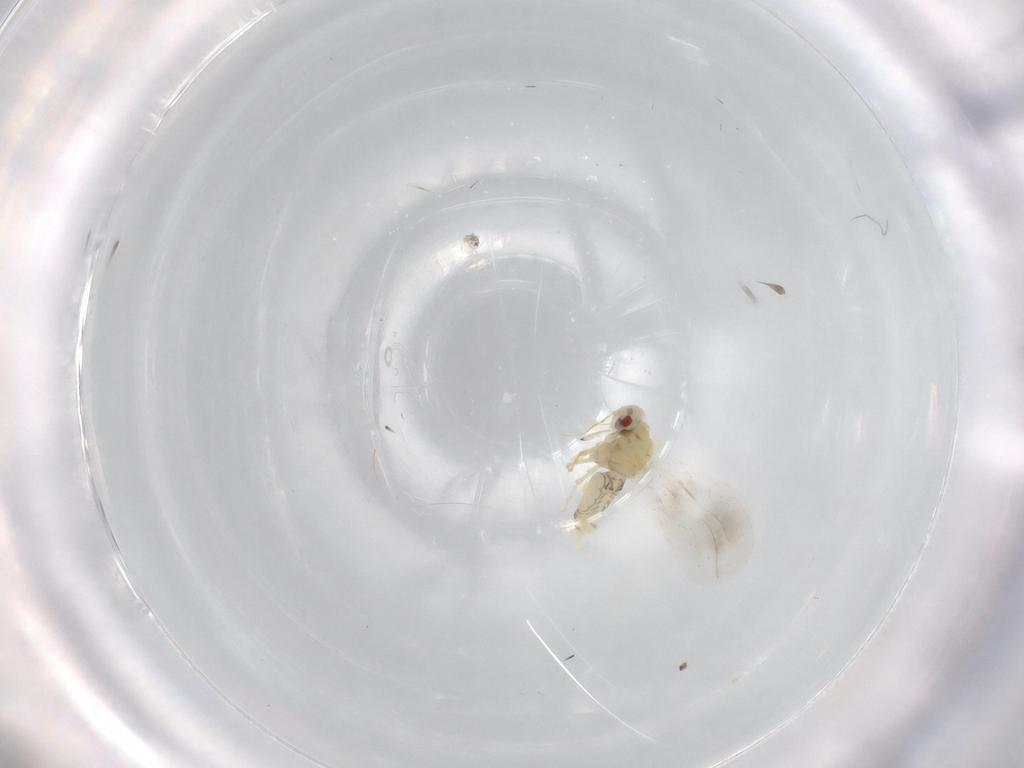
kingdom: Animalia
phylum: Arthropoda
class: Insecta
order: Hemiptera
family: Aleyrodidae
